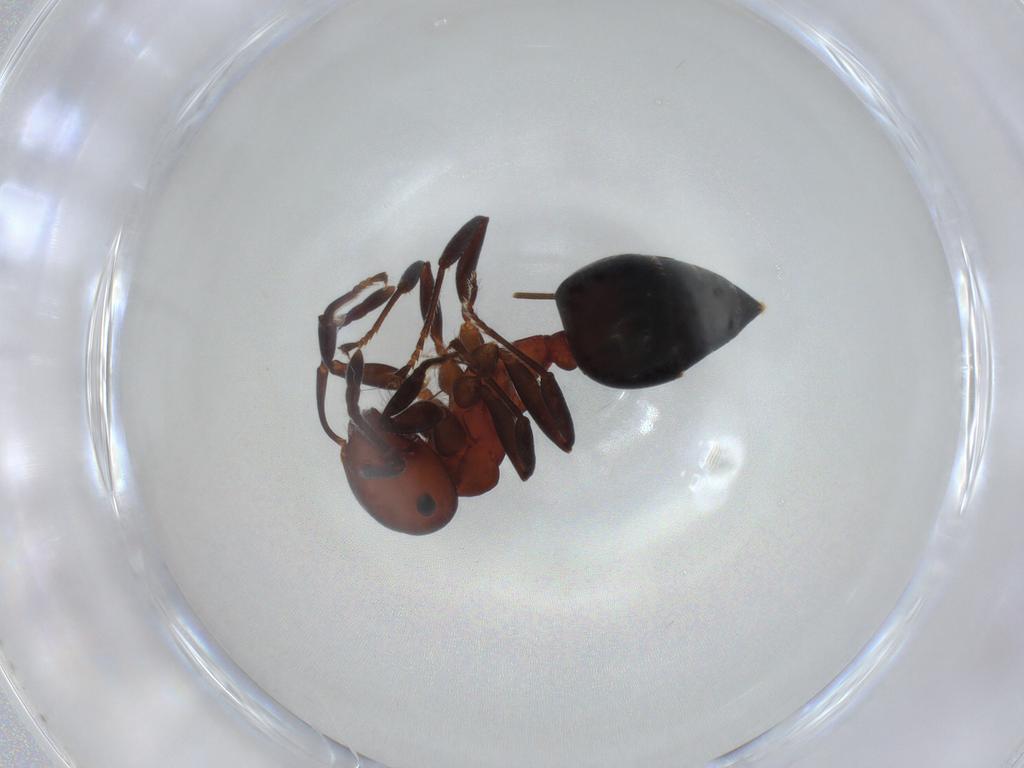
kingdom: Animalia
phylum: Arthropoda
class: Insecta
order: Hymenoptera
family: Formicidae
